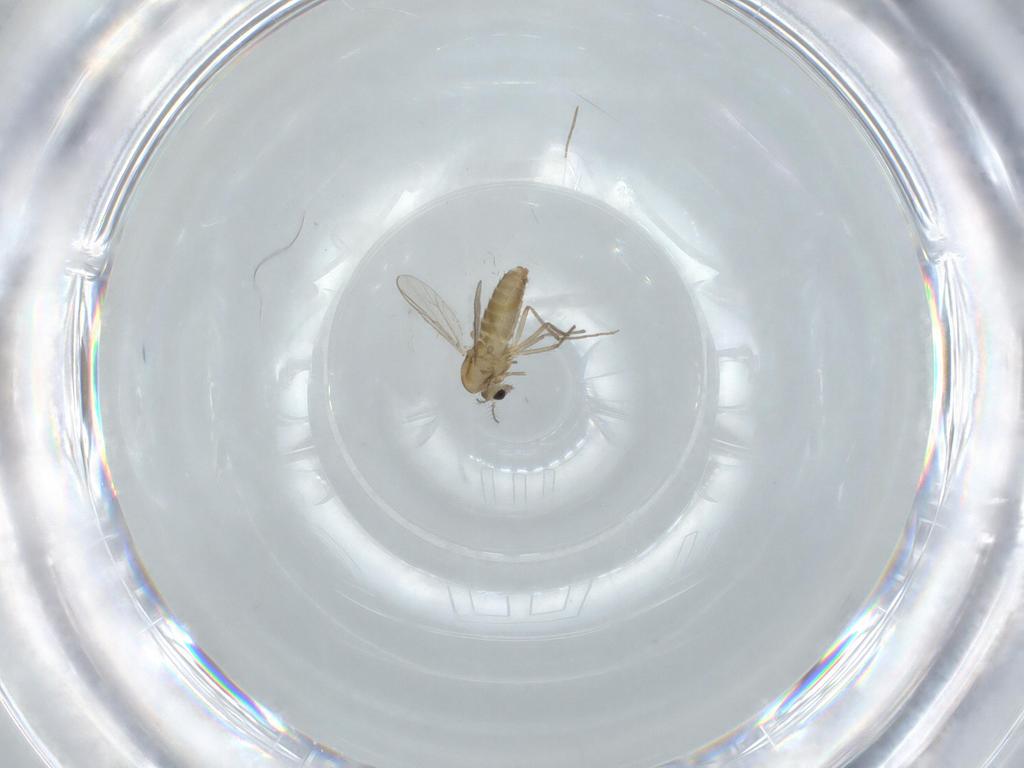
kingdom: Animalia
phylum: Arthropoda
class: Insecta
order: Diptera
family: Chironomidae
